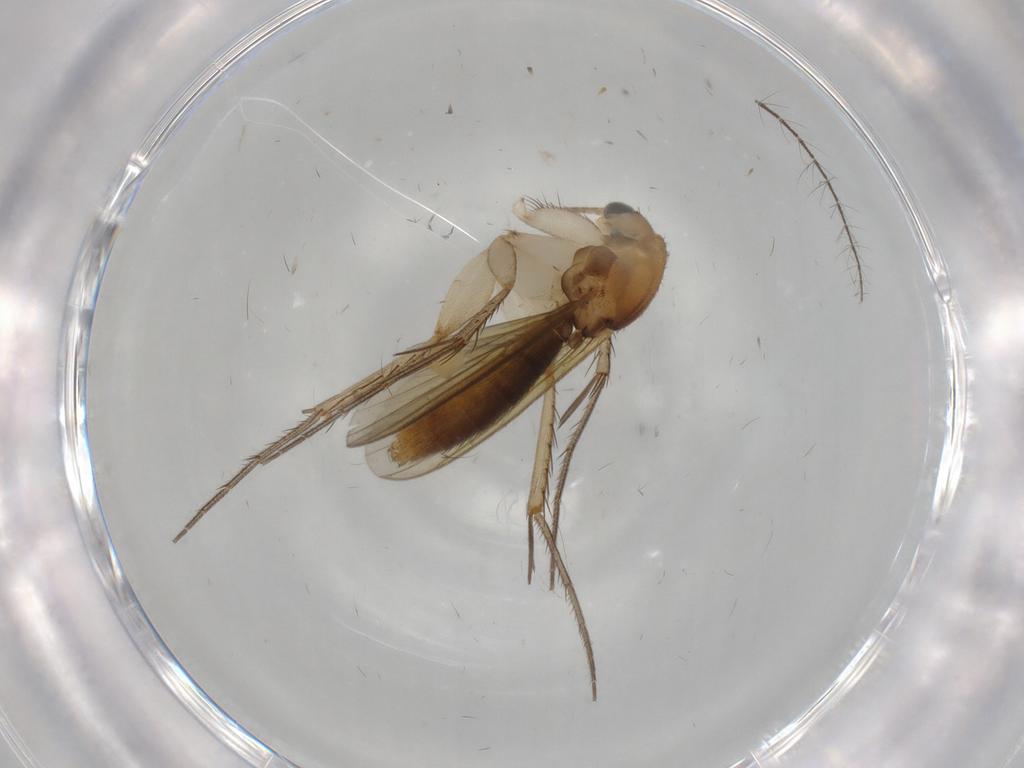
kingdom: Animalia
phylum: Arthropoda
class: Insecta
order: Diptera
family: Mycetophilidae
